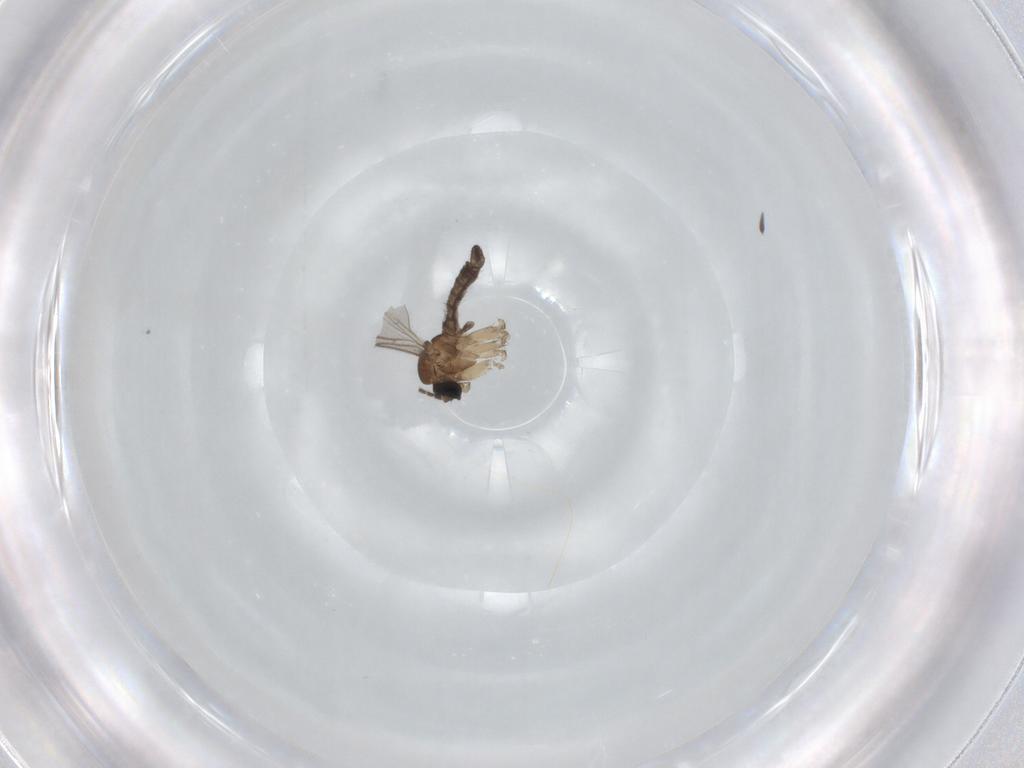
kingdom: Animalia
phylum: Arthropoda
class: Insecta
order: Diptera
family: Sciaridae
